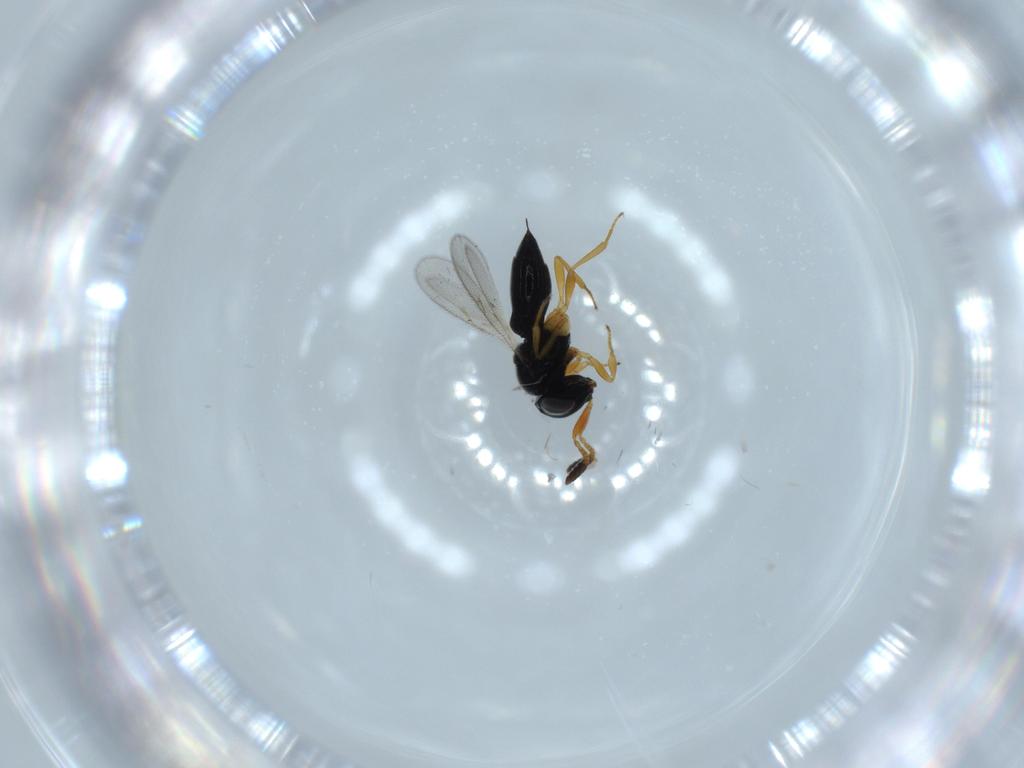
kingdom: Animalia
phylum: Arthropoda
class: Insecta
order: Hymenoptera
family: Scelionidae
